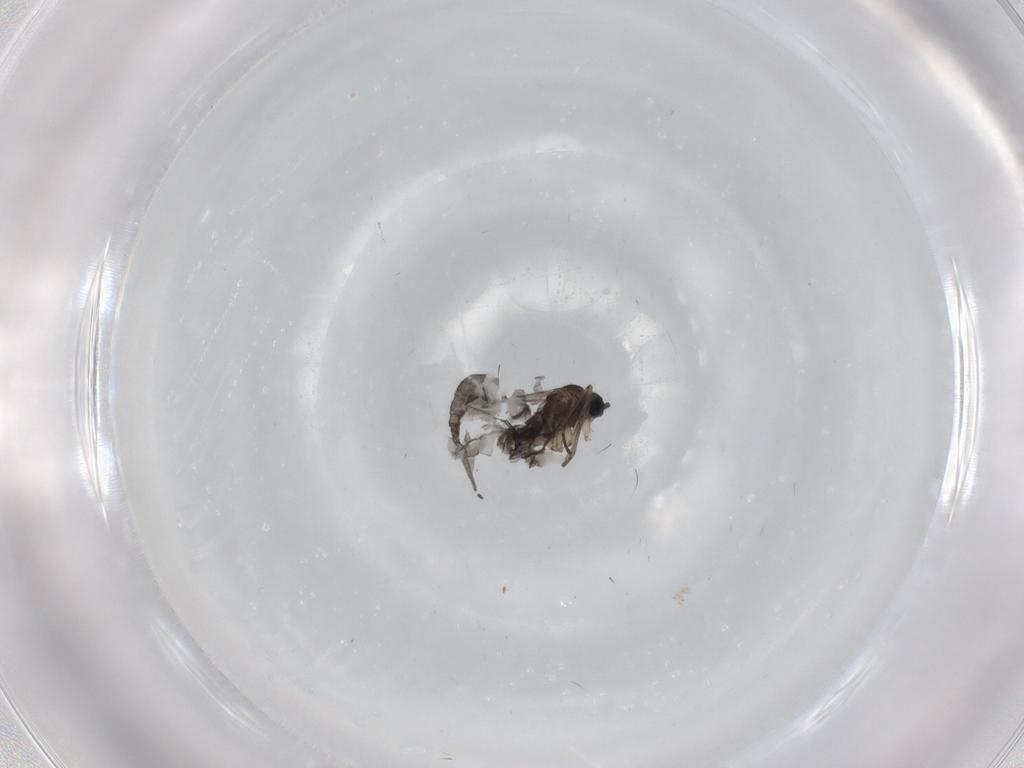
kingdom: Animalia
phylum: Arthropoda
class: Insecta
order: Diptera
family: Sciaridae
